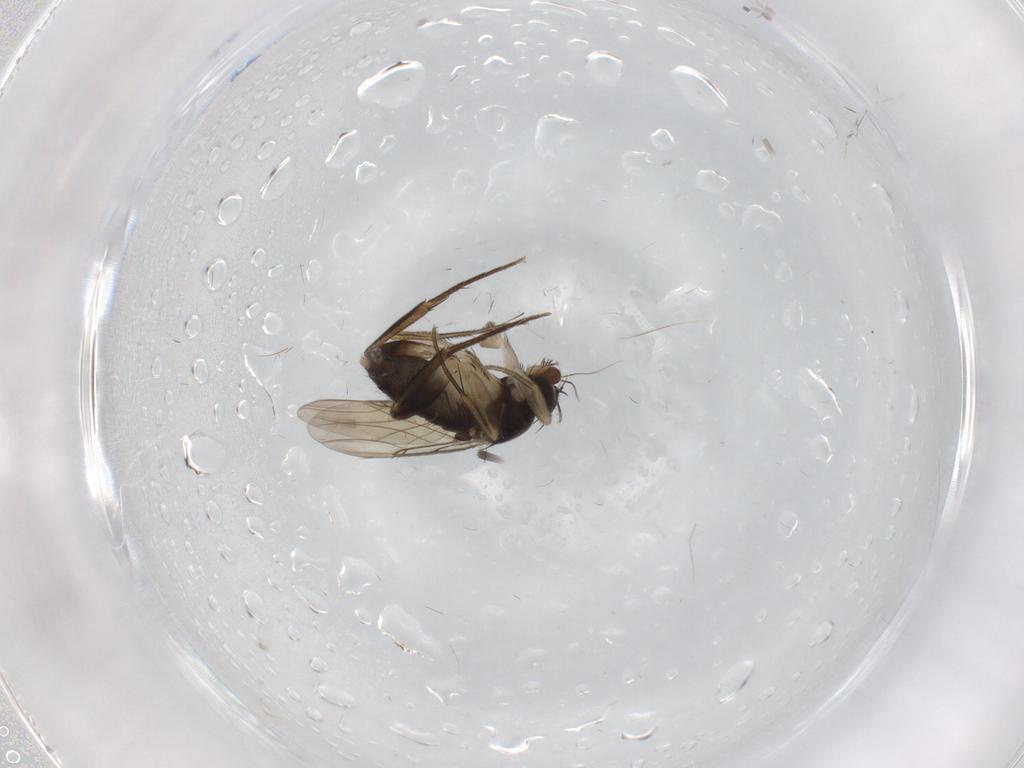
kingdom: Animalia
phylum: Arthropoda
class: Insecta
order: Diptera
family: Phoridae
